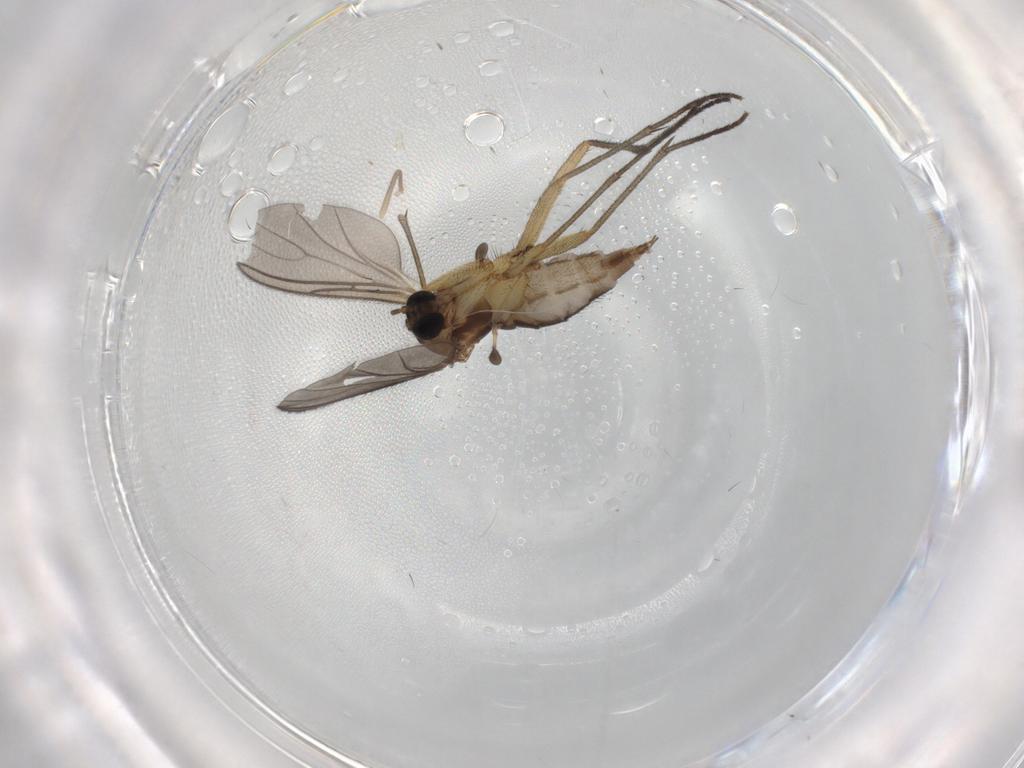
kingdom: Animalia
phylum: Arthropoda
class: Insecta
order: Diptera
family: Sciaridae
